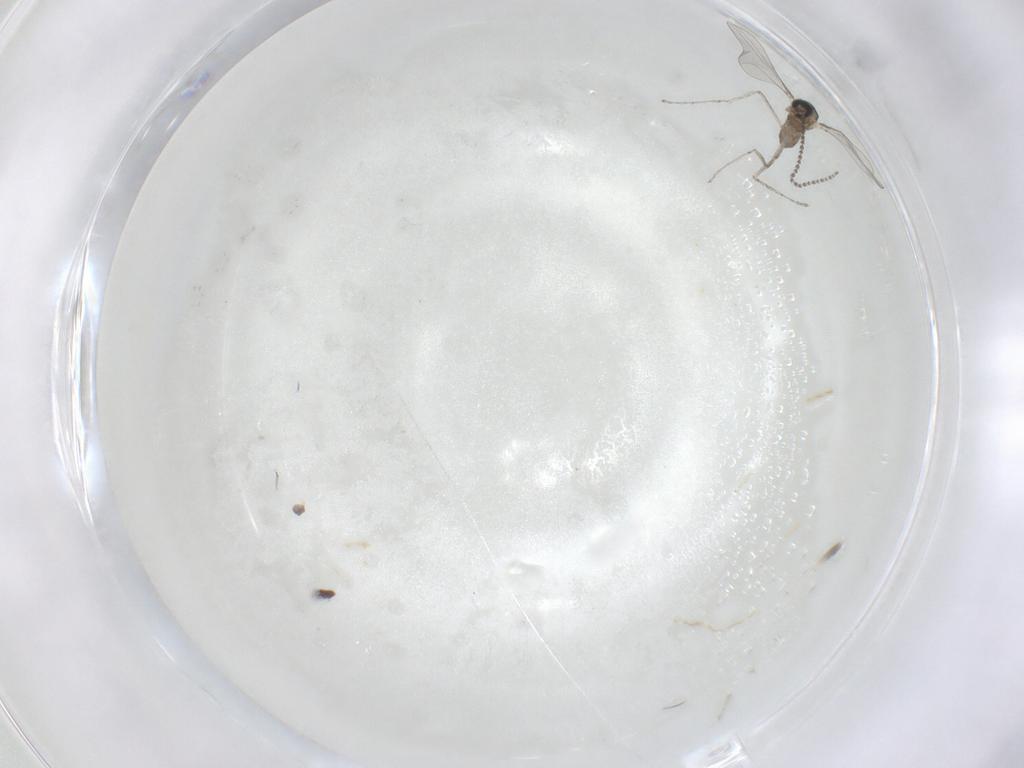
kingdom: Animalia
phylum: Arthropoda
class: Insecta
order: Diptera
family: Cecidomyiidae
